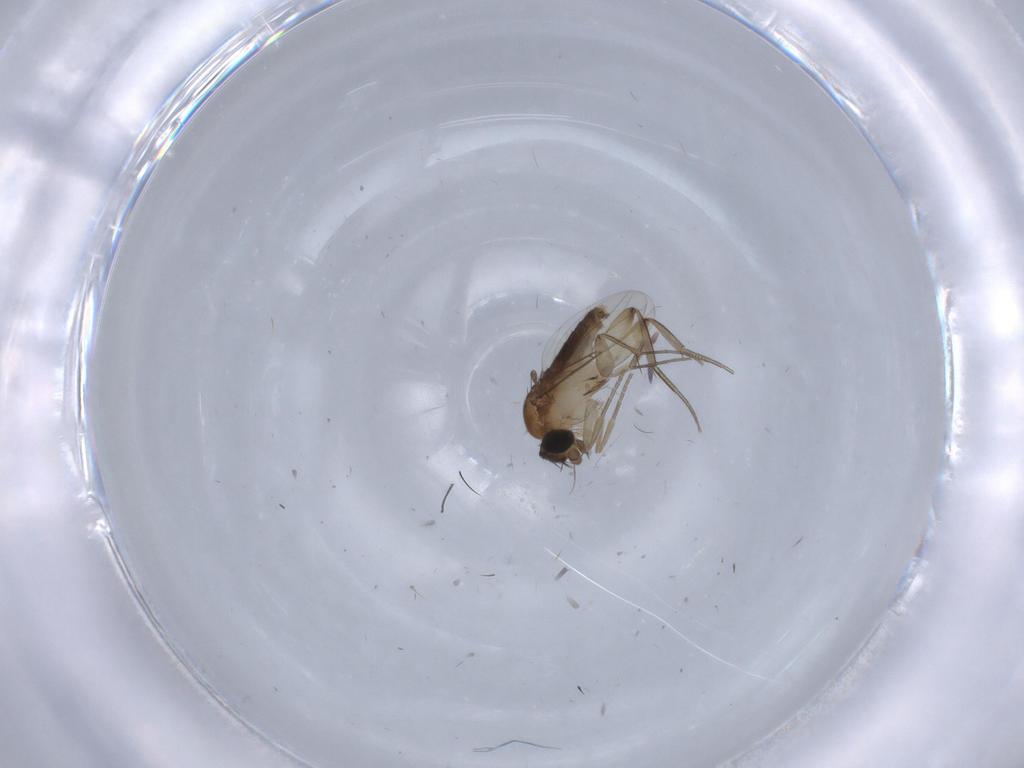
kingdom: Animalia
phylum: Arthropoda
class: Insecta
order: Diptera
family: Phoridae
